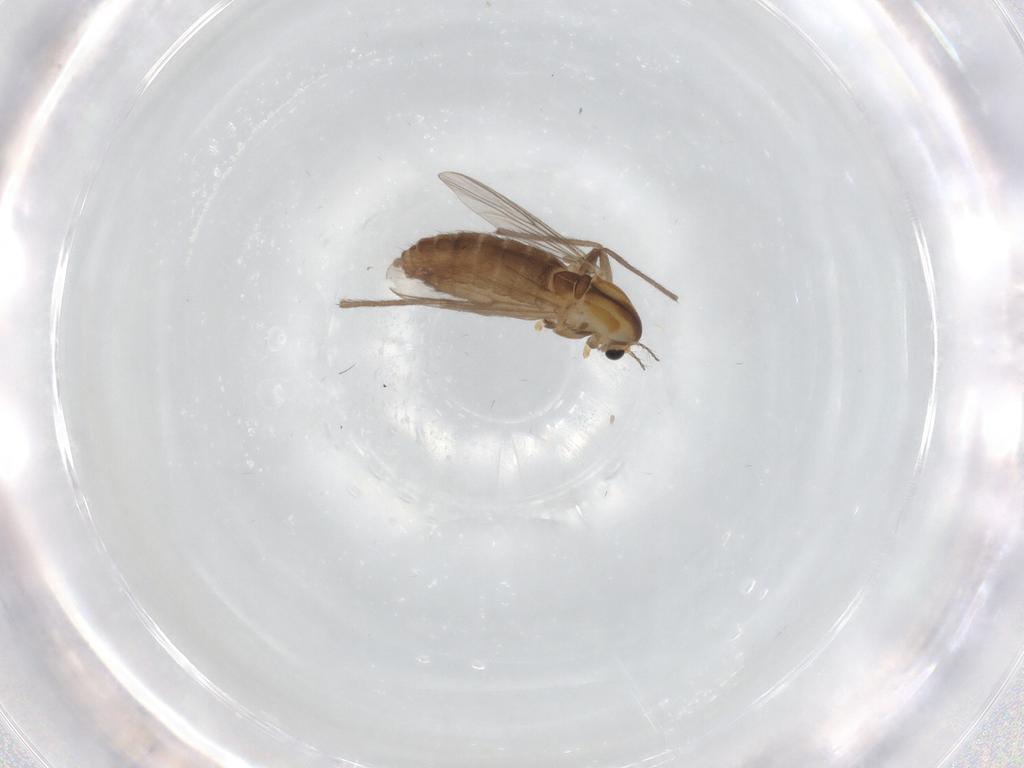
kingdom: Animalia
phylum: Arthropoda
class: Insecta
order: Diptera
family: Chironomidae
